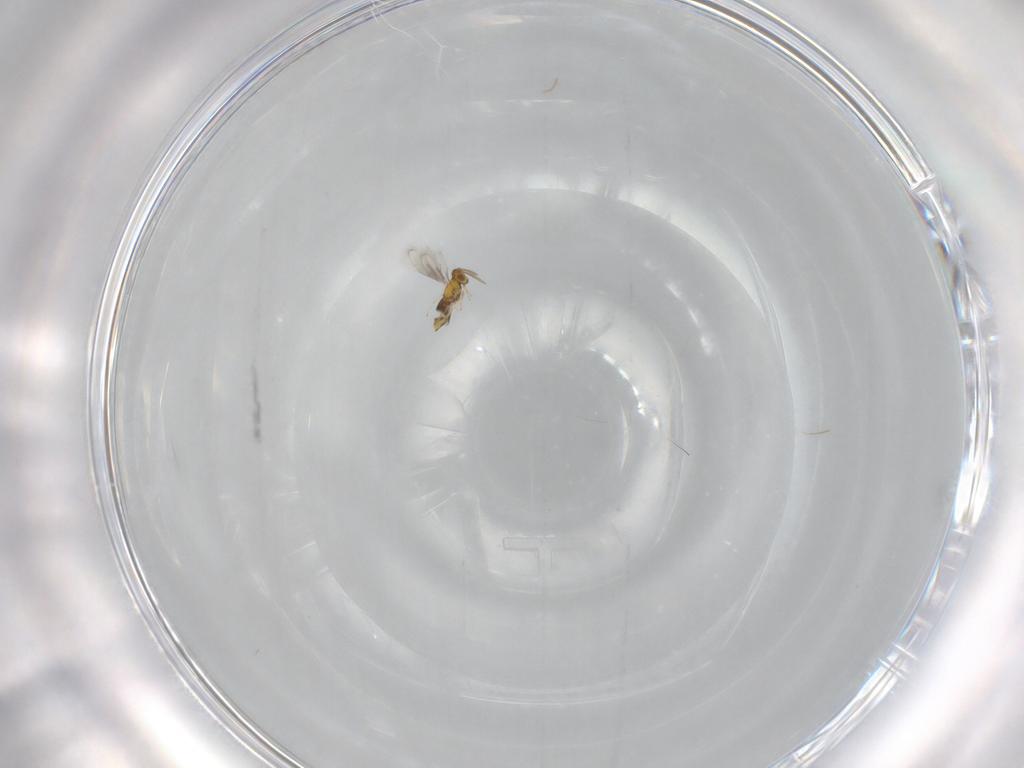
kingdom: Animalia
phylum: Arthropoda
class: Insecta
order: Hymenoptera
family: Aphelinidae
